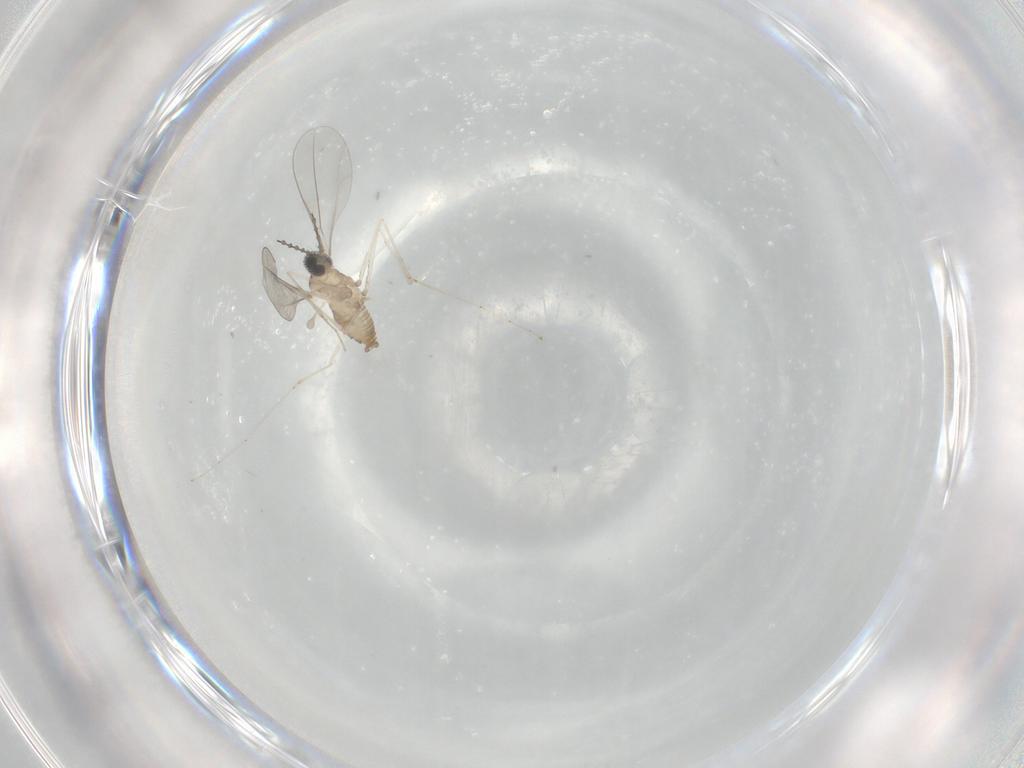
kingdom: Animalia
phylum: Arthropoda
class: Insecta
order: Diptera
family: Cecidomyiidae
